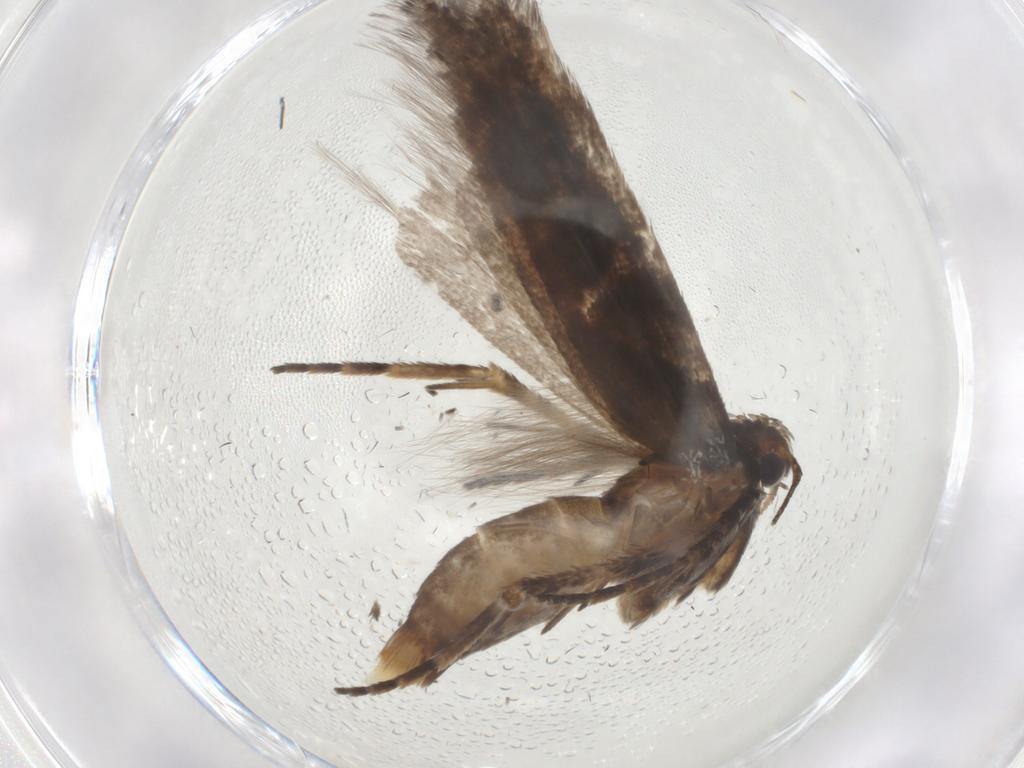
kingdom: Animalia
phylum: Arthropoda
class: Insecta
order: Lepidoptera
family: Gelechiidae
